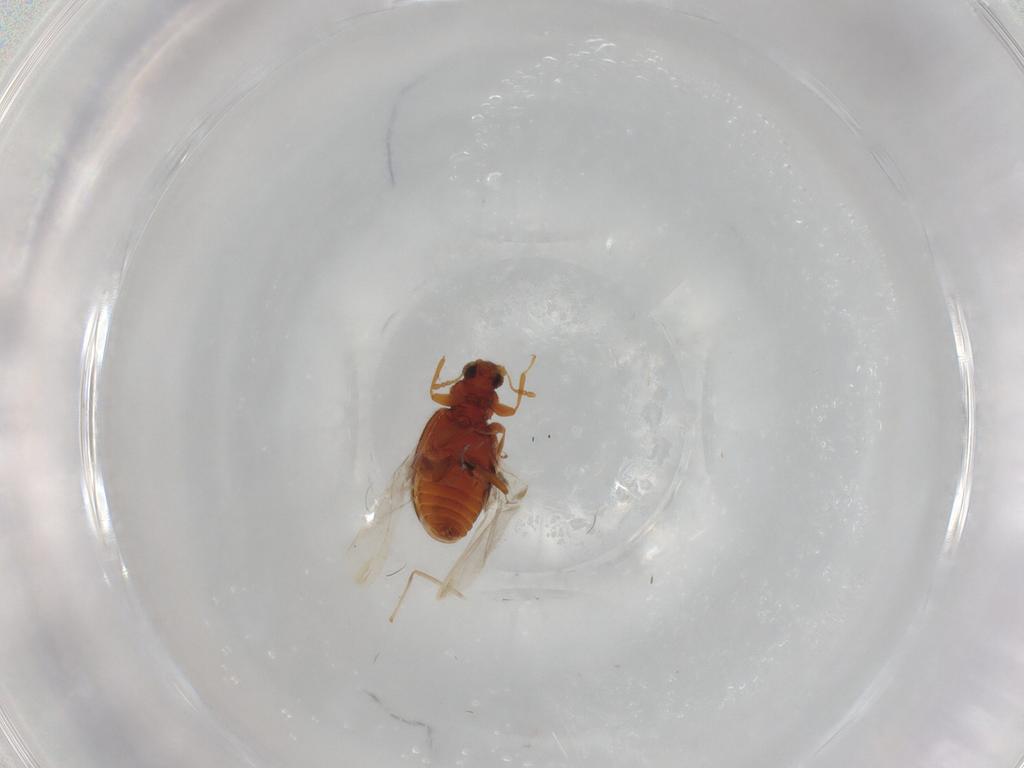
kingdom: Animalia
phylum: Arthropoda
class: Insecta
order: Coleoptera
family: Latridiidae
